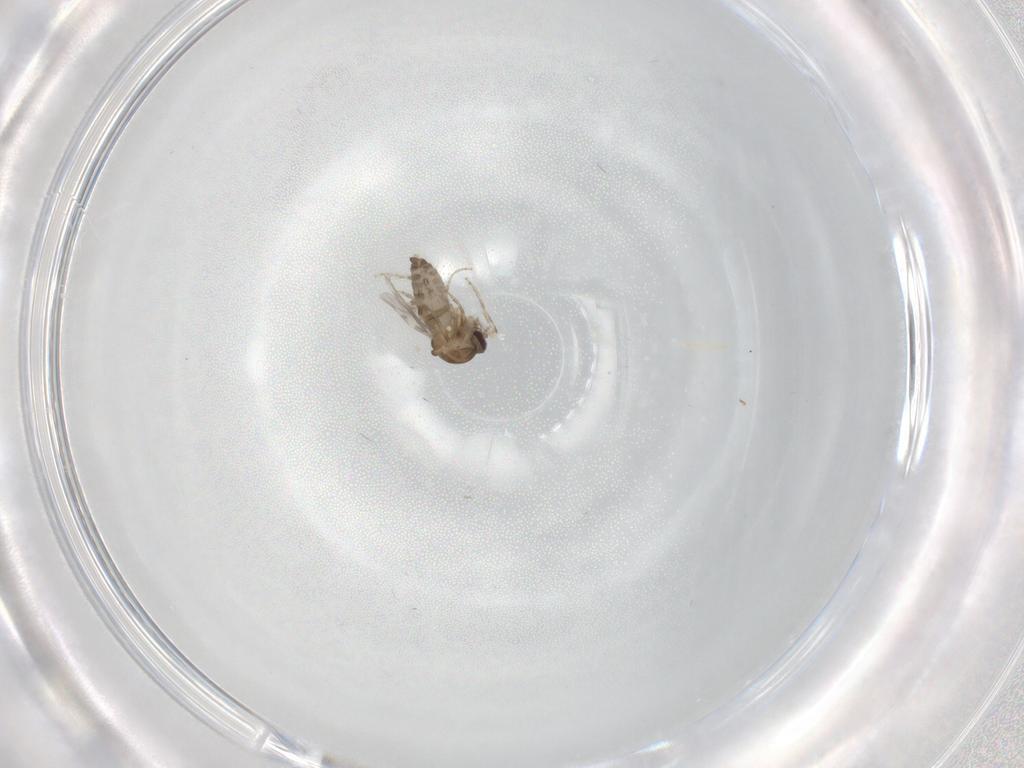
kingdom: Animalia
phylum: Arthropoda
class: Insecta
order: Diptera
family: Ceratopogonidae
